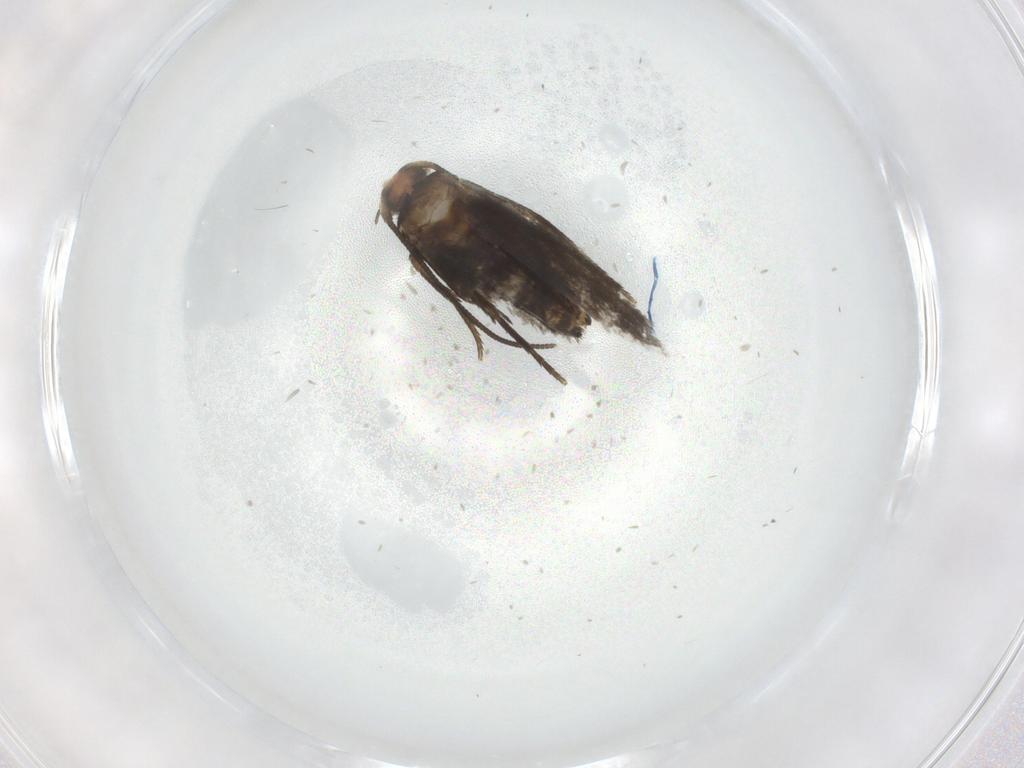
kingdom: Animalia
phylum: Arthropoda
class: Insecta
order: Lepidoptera
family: Nepticulidae
